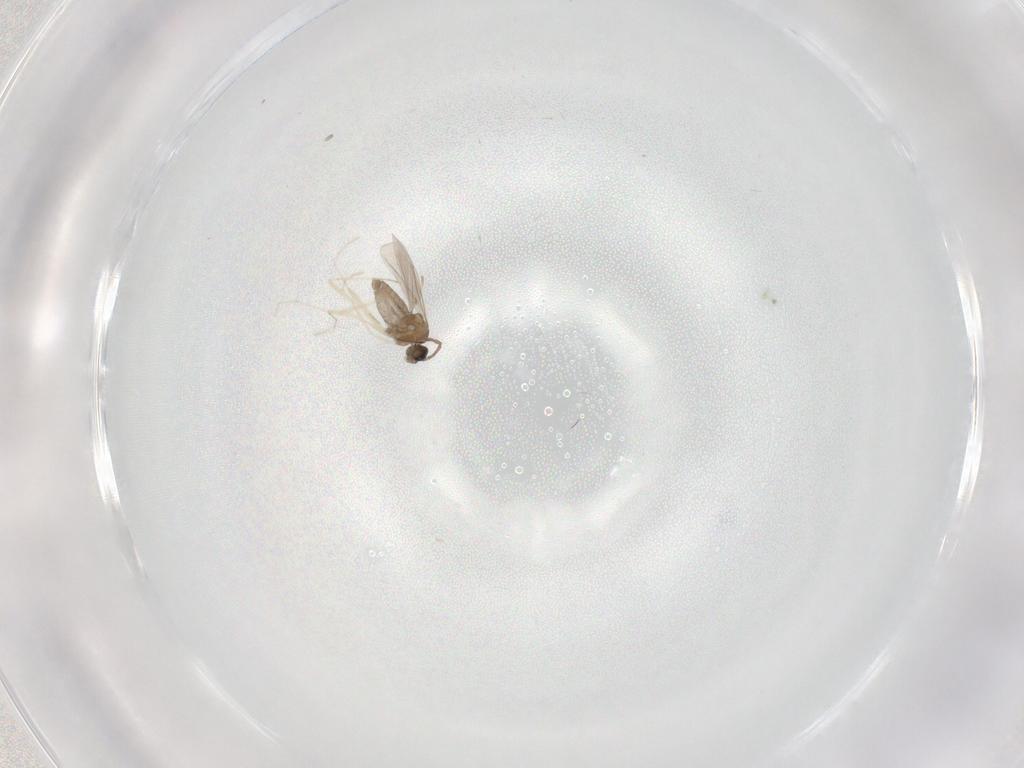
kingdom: Animalia
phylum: Arthropoda
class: Insecta
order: Diptera
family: Cecidomyiidae
